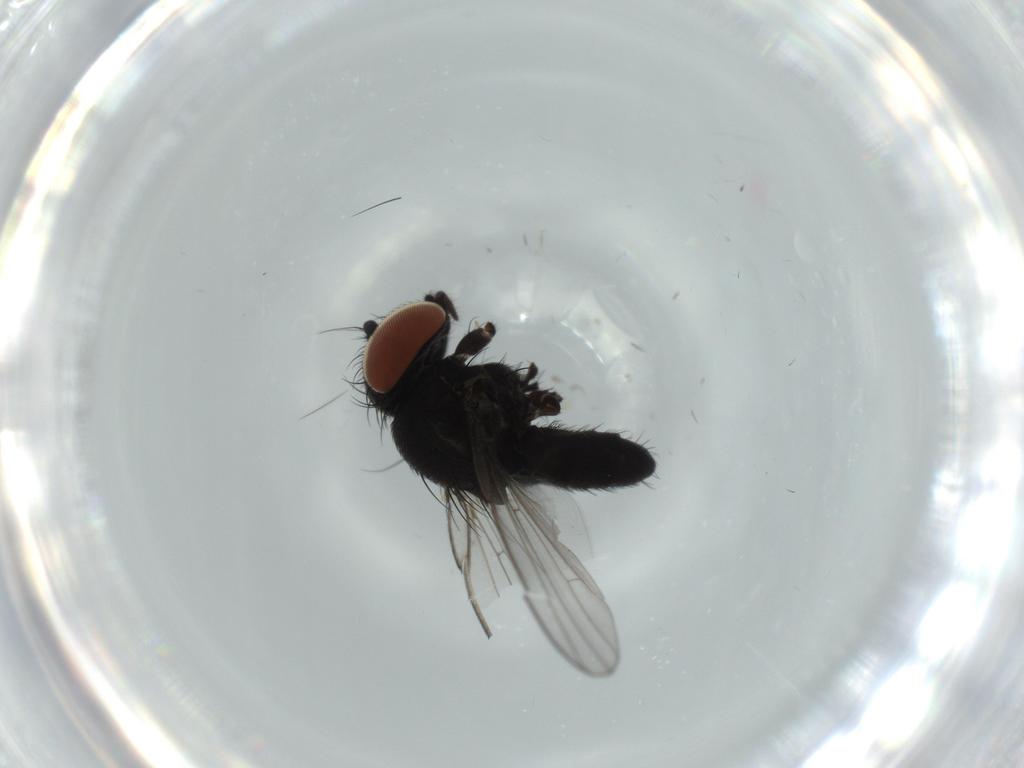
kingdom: Animalia
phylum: Arthropoda
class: Insecta
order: Diptera
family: Milichiidae
